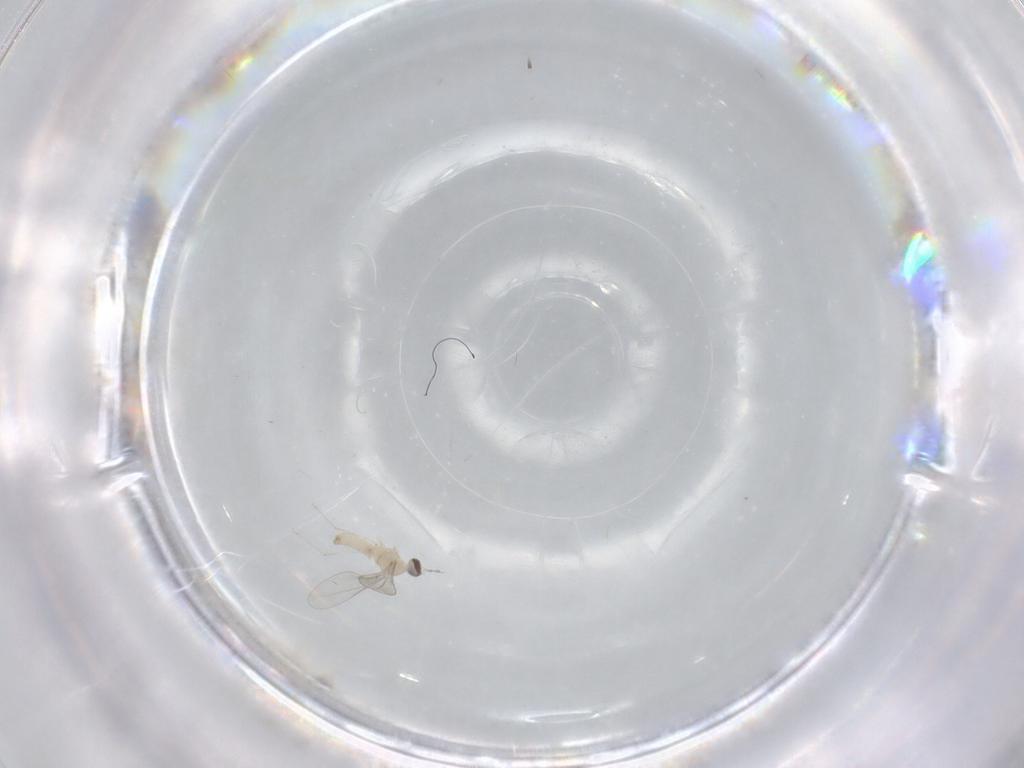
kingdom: Animalia
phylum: Arthropoda
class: Insecta
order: Diptera
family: Cecidomyiidae
